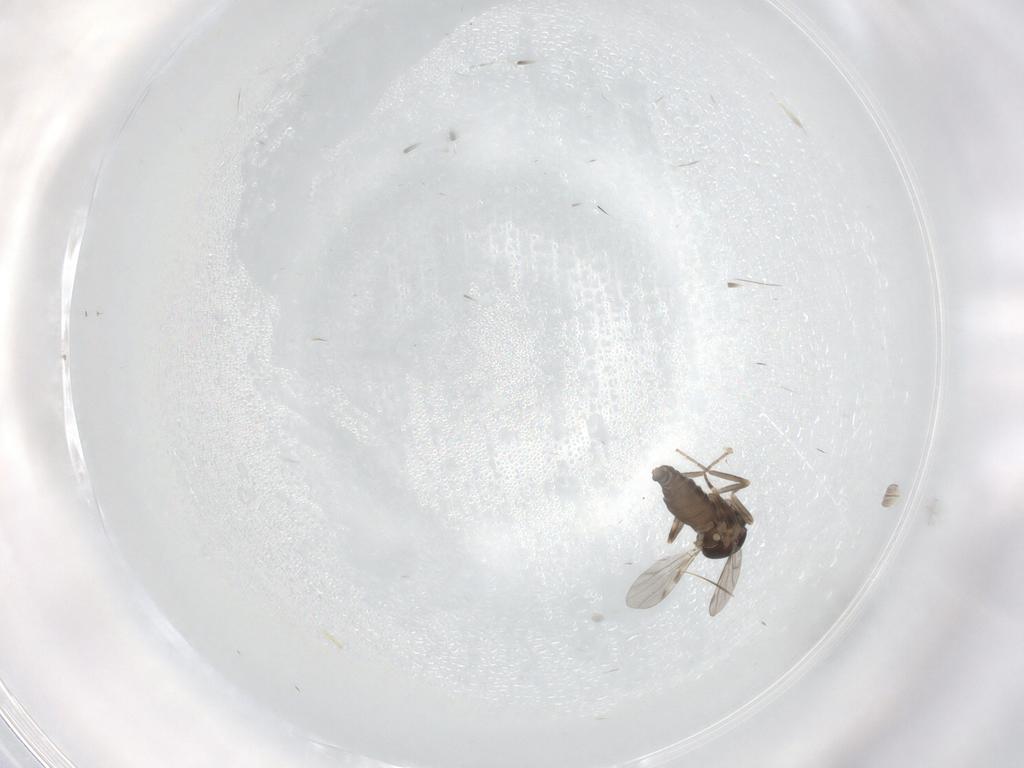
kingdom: Animalia
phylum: Arthropoda
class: Insecta
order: Diptera
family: Ceratopogonidae
